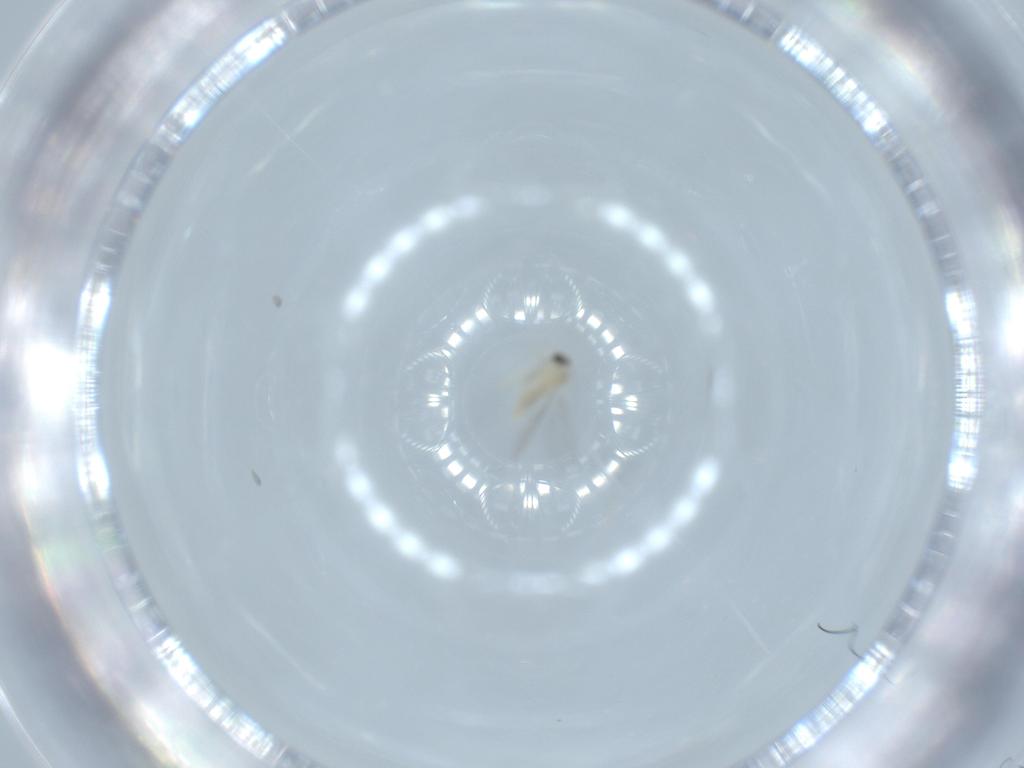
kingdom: Animalia
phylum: Arthropoda
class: Insecta
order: Diptera
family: Cecidomyiidae
